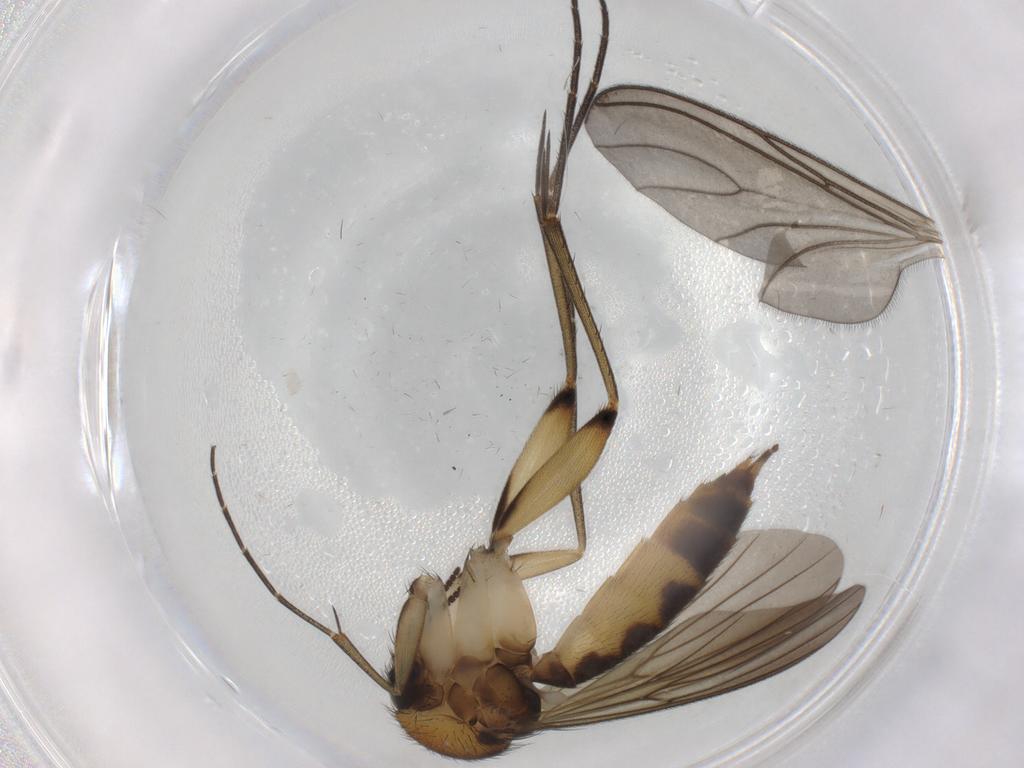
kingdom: Animalia
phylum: Arthropoda
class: Insecta
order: Diptera
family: Mycetophilidae
